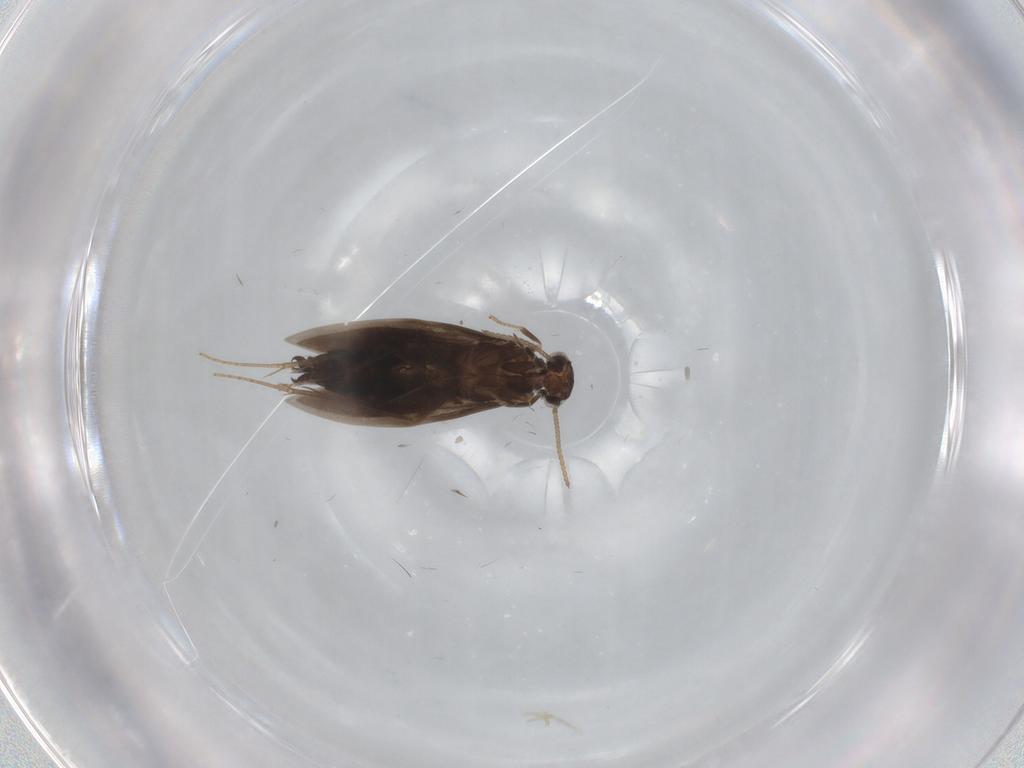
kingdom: Animalia
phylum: Arthropoda
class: Insecta
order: Trichoptera
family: Hydroptilidae
